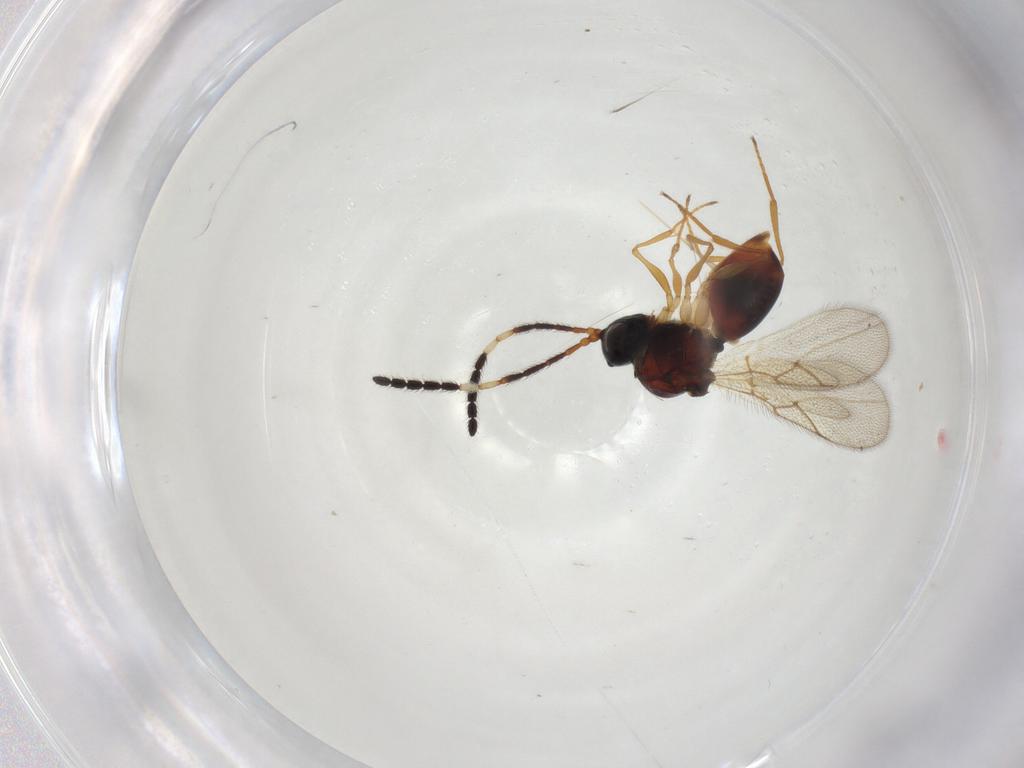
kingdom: Animalia
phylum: Arthropoda
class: Insecta
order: Hymenoptera
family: Figitidae
